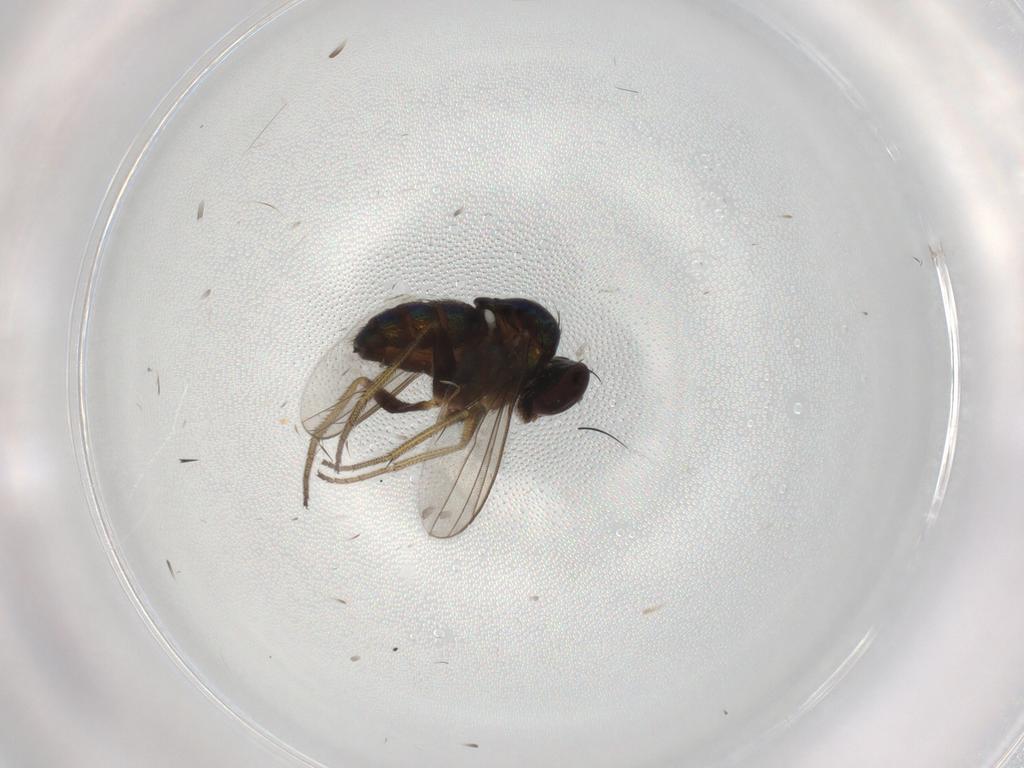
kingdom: Animalia
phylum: Arthropoda
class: Insecta
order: Diptera
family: Dolichopodidae
